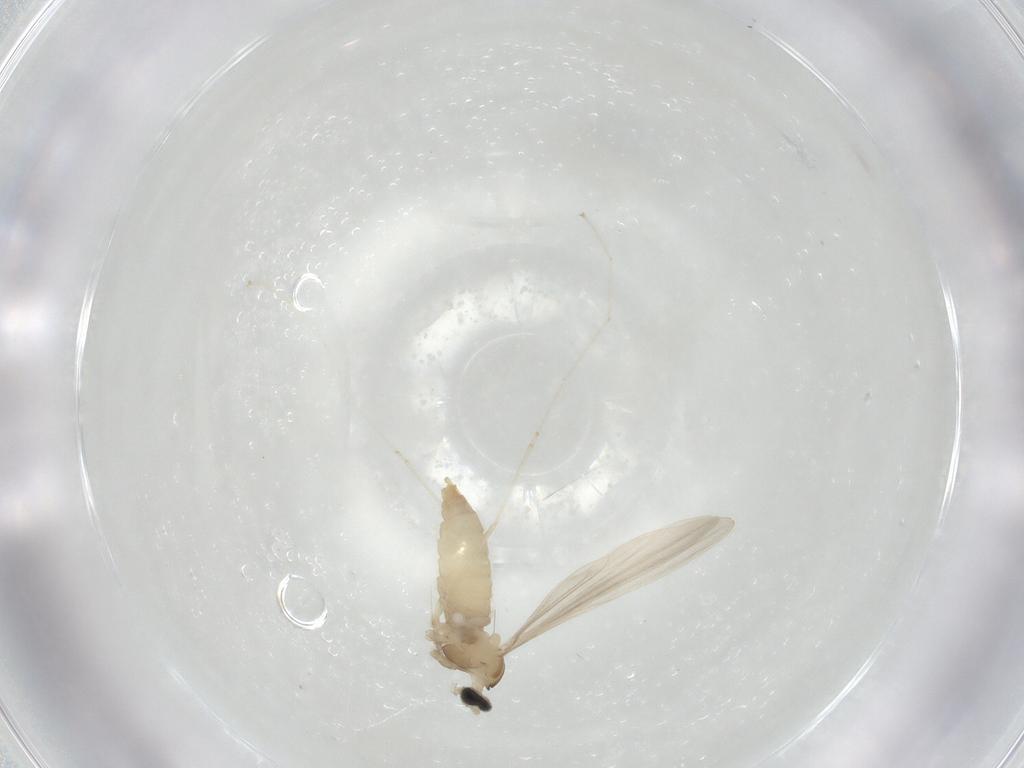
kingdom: Animalia
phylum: Arthropoda
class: Insecta
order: Diptera
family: Cecidomyiidae
